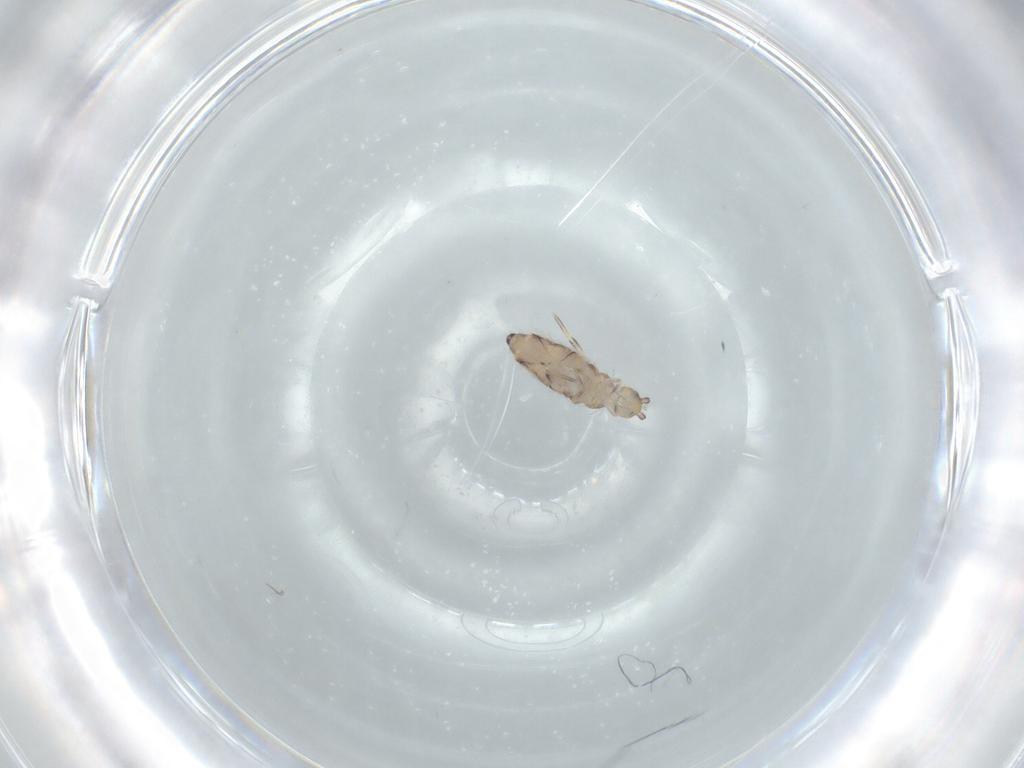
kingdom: Animalia
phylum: Arthropoda
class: Collembola
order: Entomobryomorpha
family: Entomobryidae
